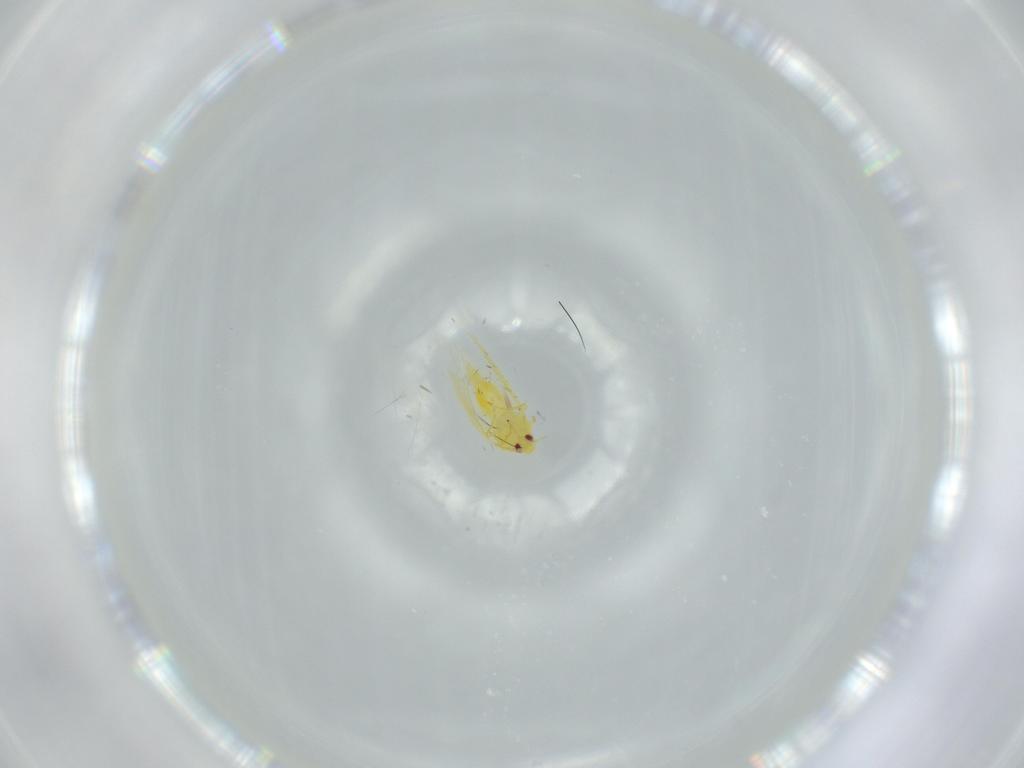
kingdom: Animalia
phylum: Arthropoda
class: Insecta
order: Hemiptera
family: Aleyrodidae
